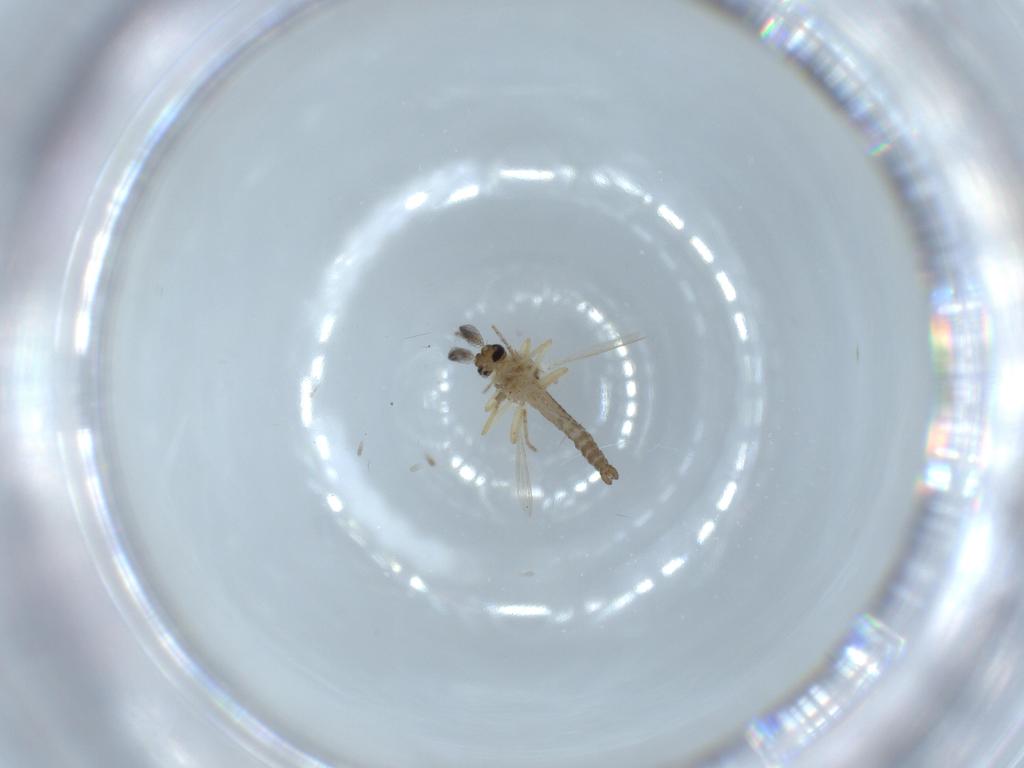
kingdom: Animalia
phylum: Arthropoda
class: Insecta
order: Diptera
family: Ceratopogonidae
